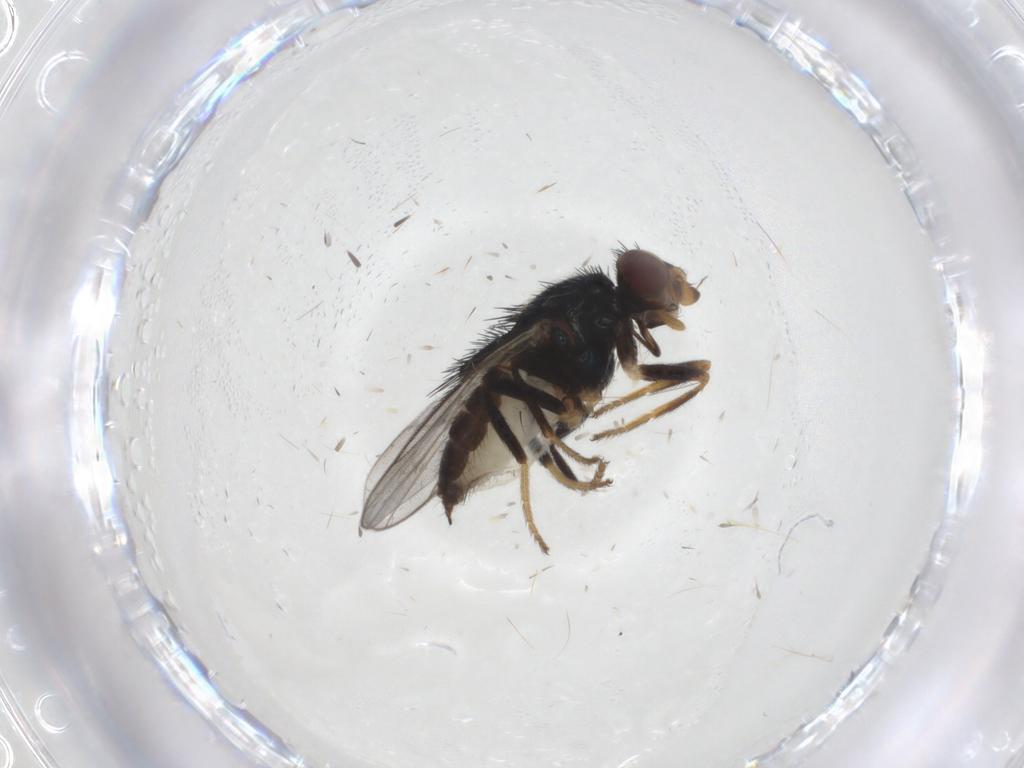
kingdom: Animalia
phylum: Arthropoda
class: Insecta
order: Diptera
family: Chloropidae
